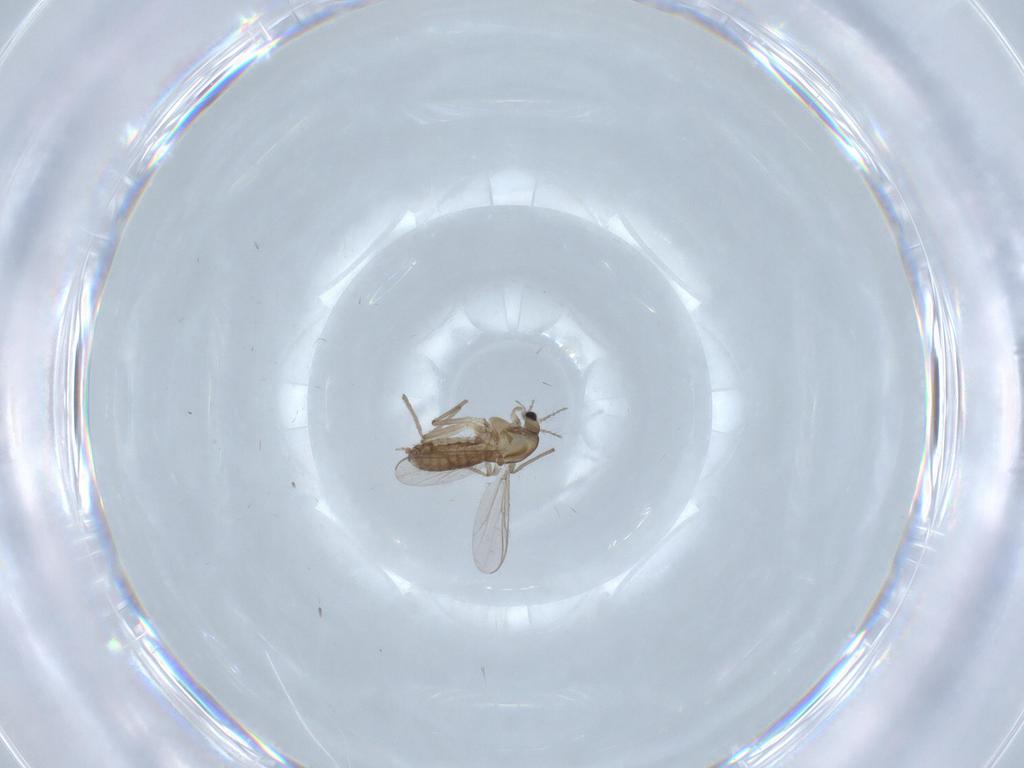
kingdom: Animalia
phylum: Arthropoda
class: Insecta
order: Diptera
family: Chironomidae
